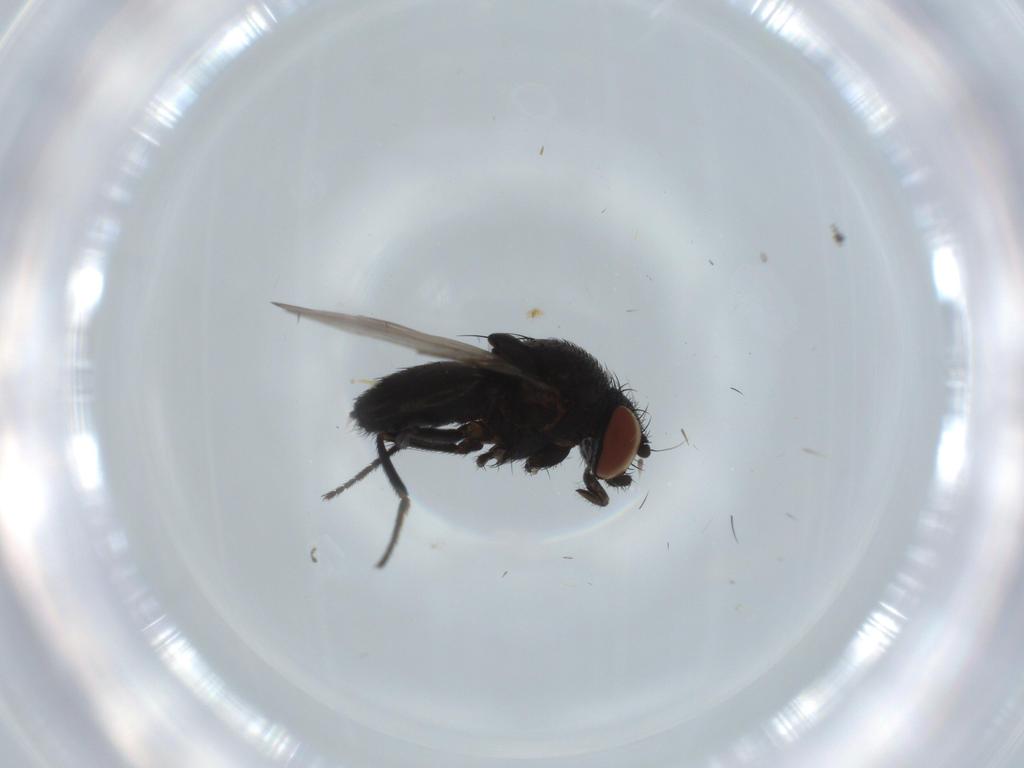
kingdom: Animalia
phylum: Arthropoda
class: Insecta
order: Diptera
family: Milichiidae
